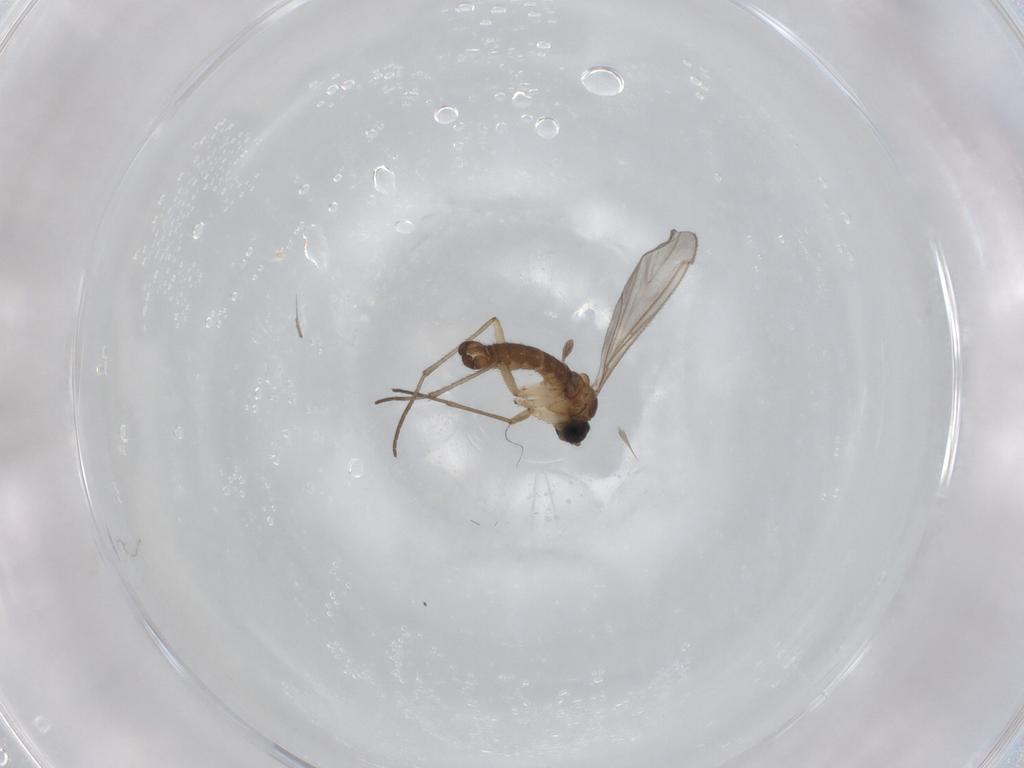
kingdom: Animalia
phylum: Arthropoda
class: Insecta
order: Diptera
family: Sciaridae
